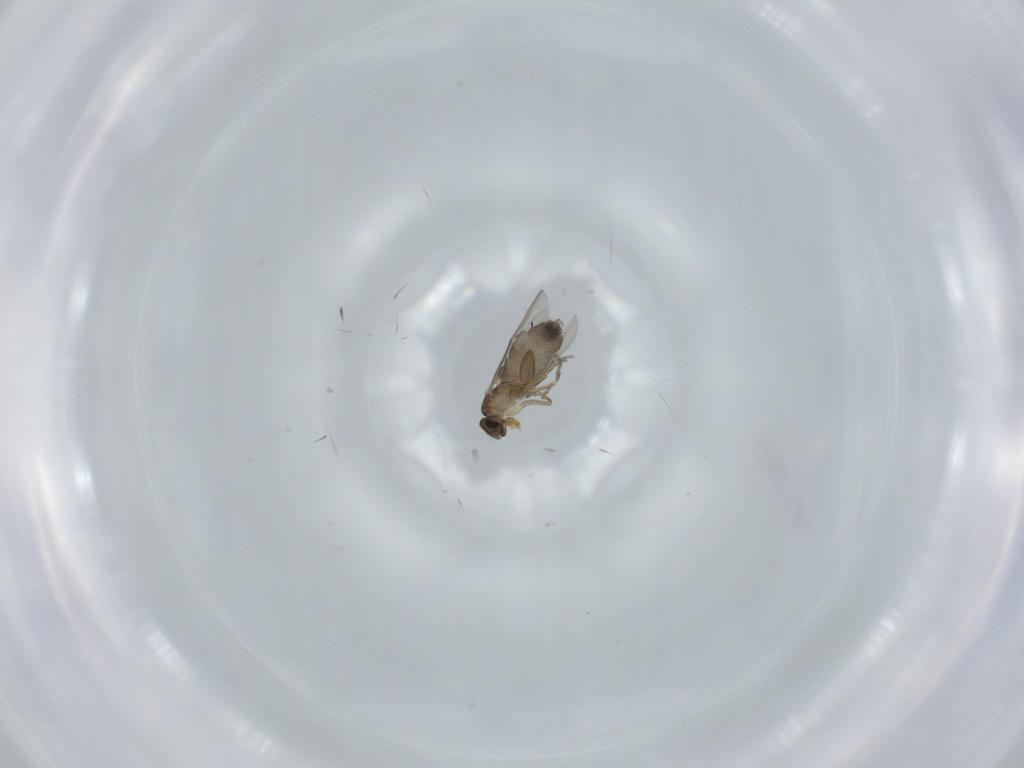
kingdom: Animalia
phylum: Arthropoda
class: Insecta
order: Diptera
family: Phoridae
